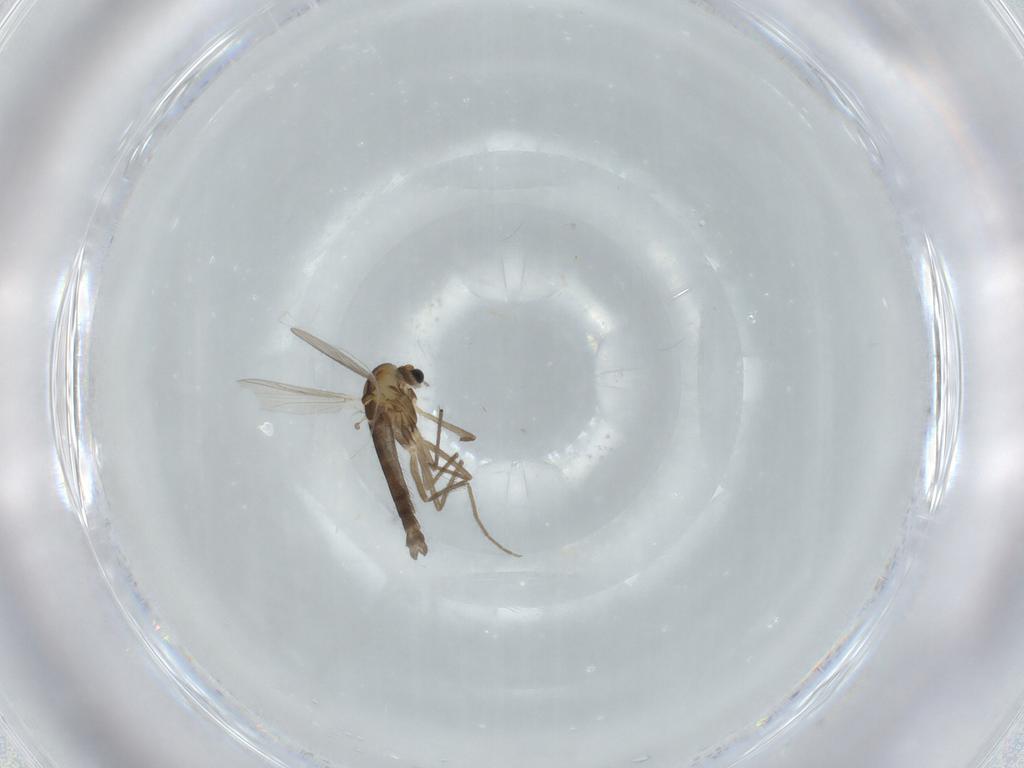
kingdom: Animalia
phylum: Arthropoda
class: Insecta
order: Diptera
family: Chironomidae
